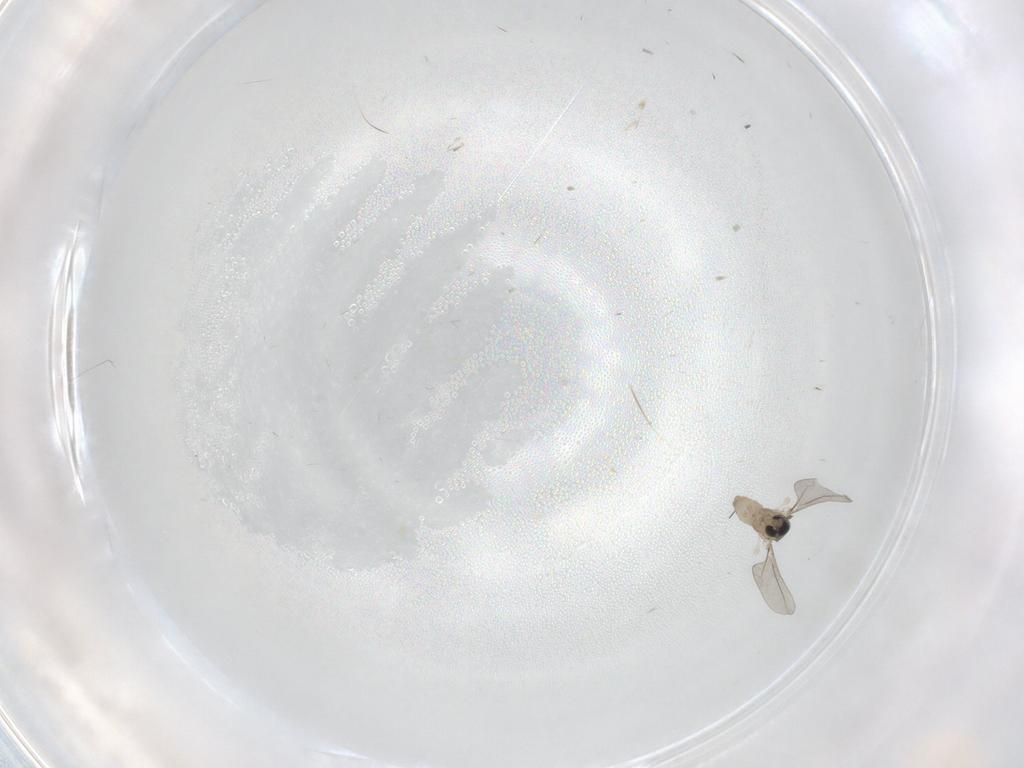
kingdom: Animalia
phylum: Arthropoda
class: Insecta
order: Diptera
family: Cecidomyiidae
